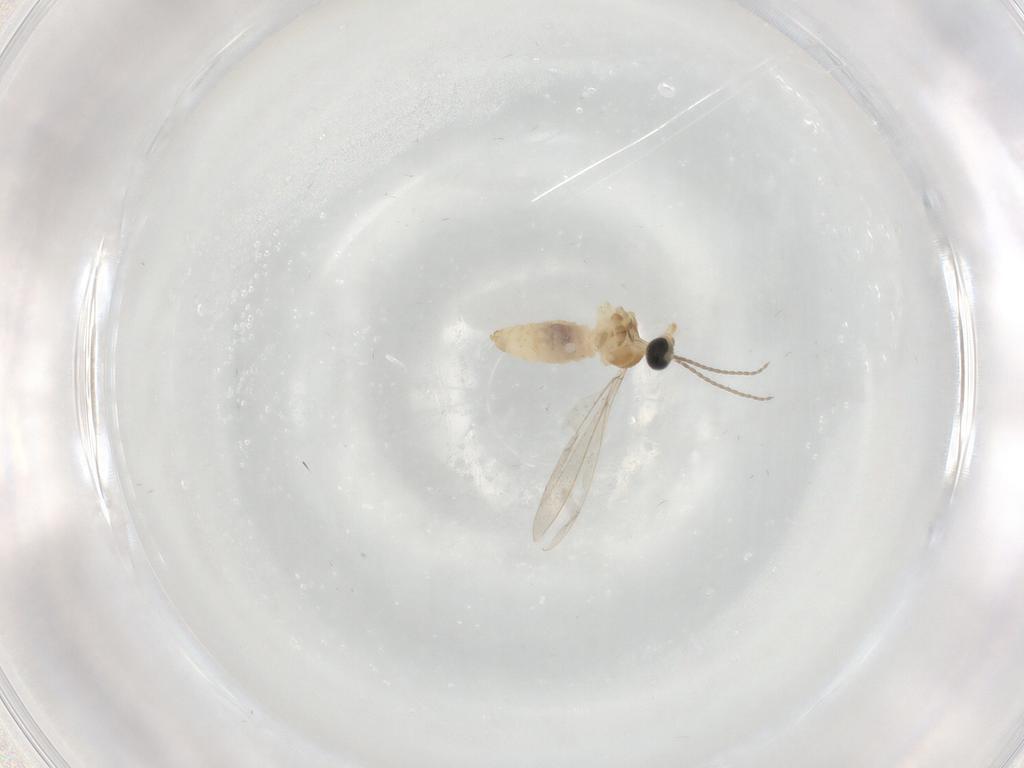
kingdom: Animalia
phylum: Arthropoda
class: Insecta
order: Diptera
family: Cecidomyiidae
